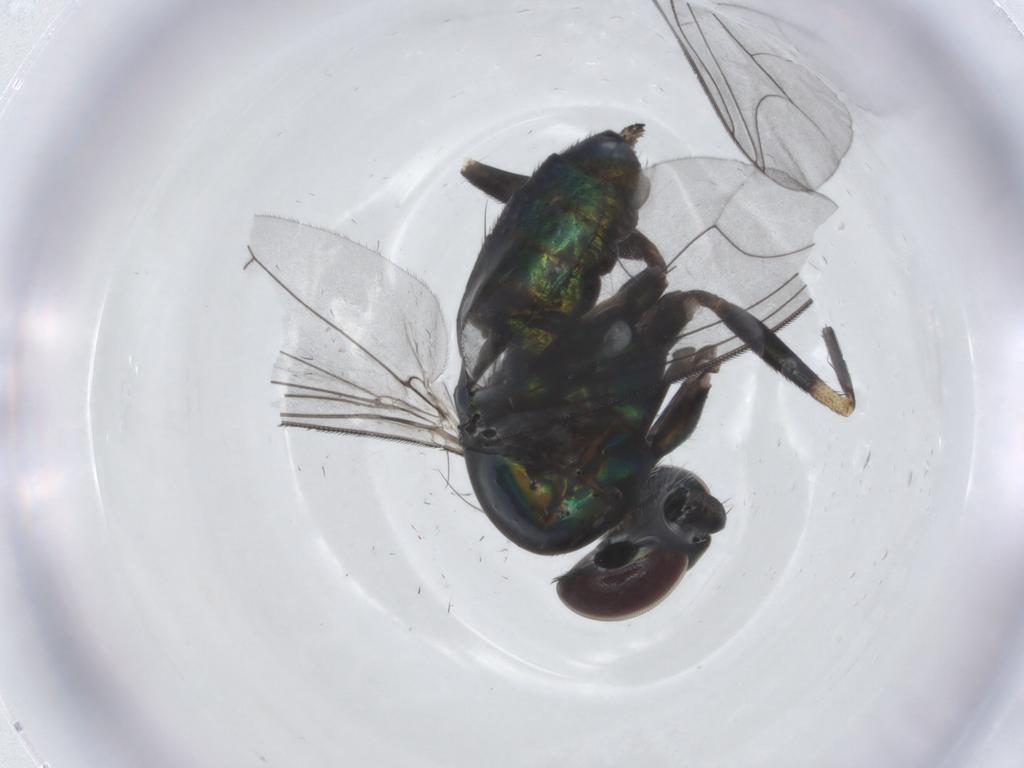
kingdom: Animalia
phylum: Arthropoda
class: Insecta
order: Diptera
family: Dolichopodidae
